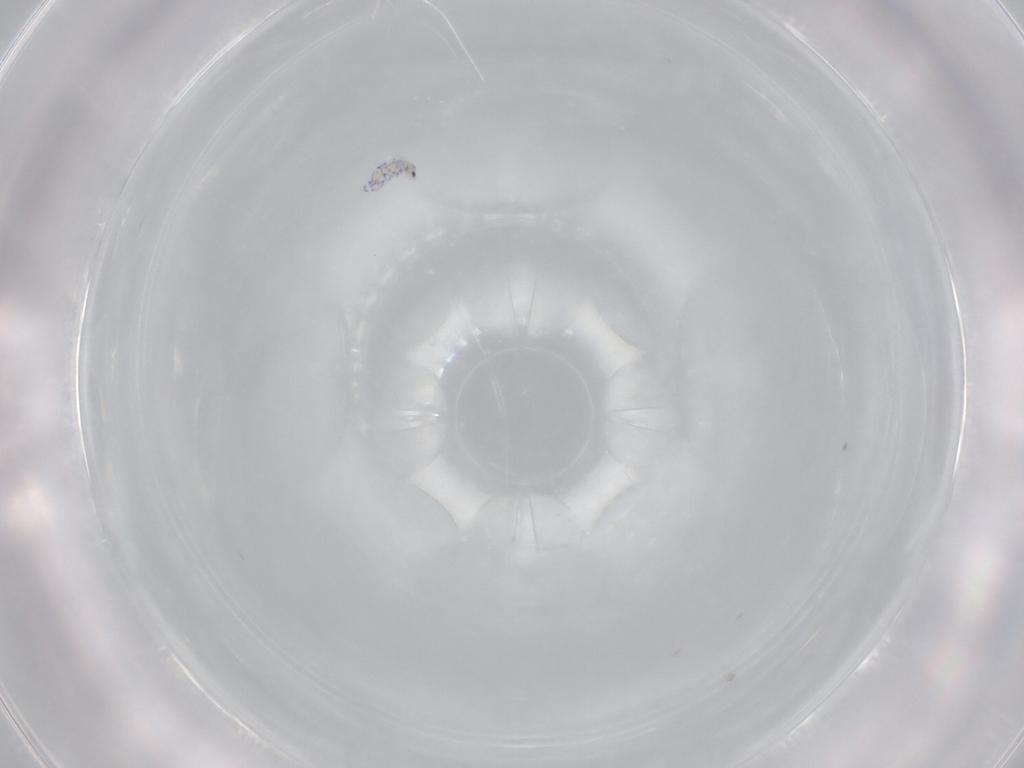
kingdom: Animalia
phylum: Arthropoda
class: Collembola
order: Entomobryomorpha
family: Entomobryidae
